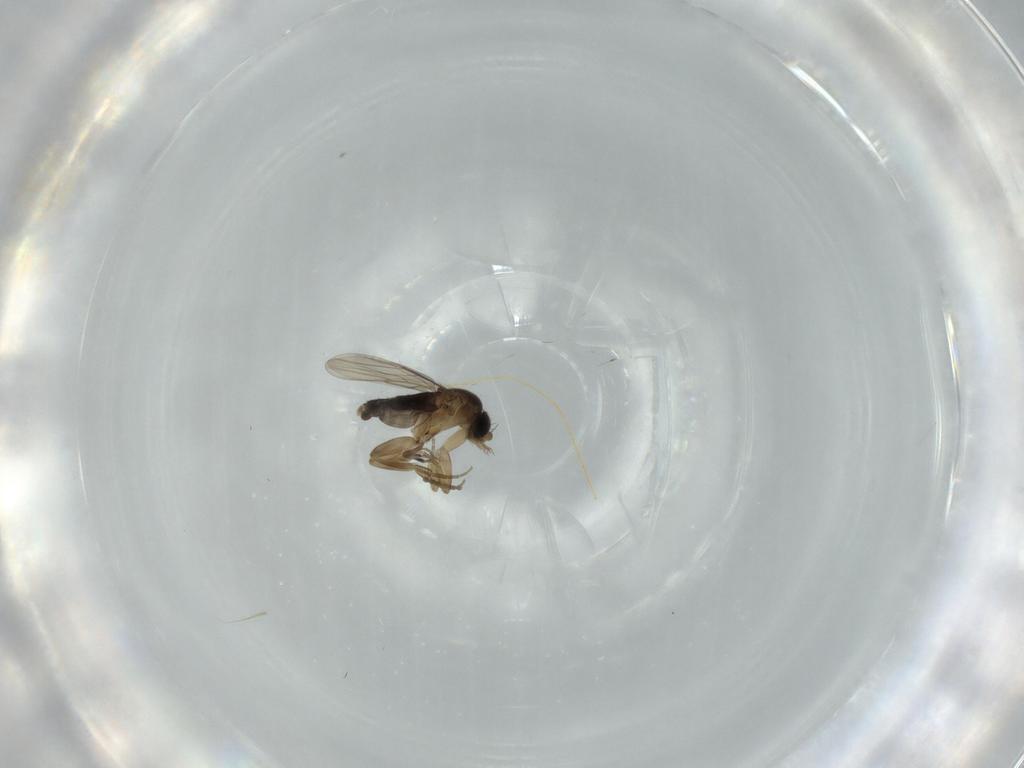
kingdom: Animalia
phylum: Arthropoda
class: Insecta
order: Diptera
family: Phoridae
